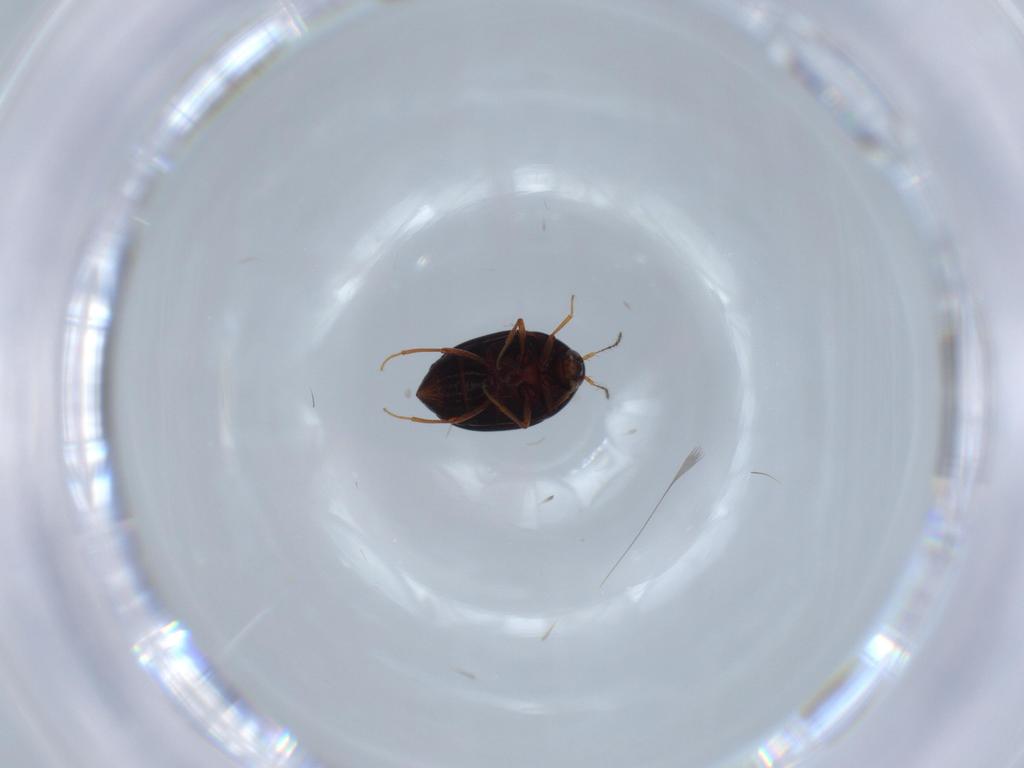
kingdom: Animalia
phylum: Arthropoda
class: Insecta
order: Coleoptera
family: Staphylinidae
